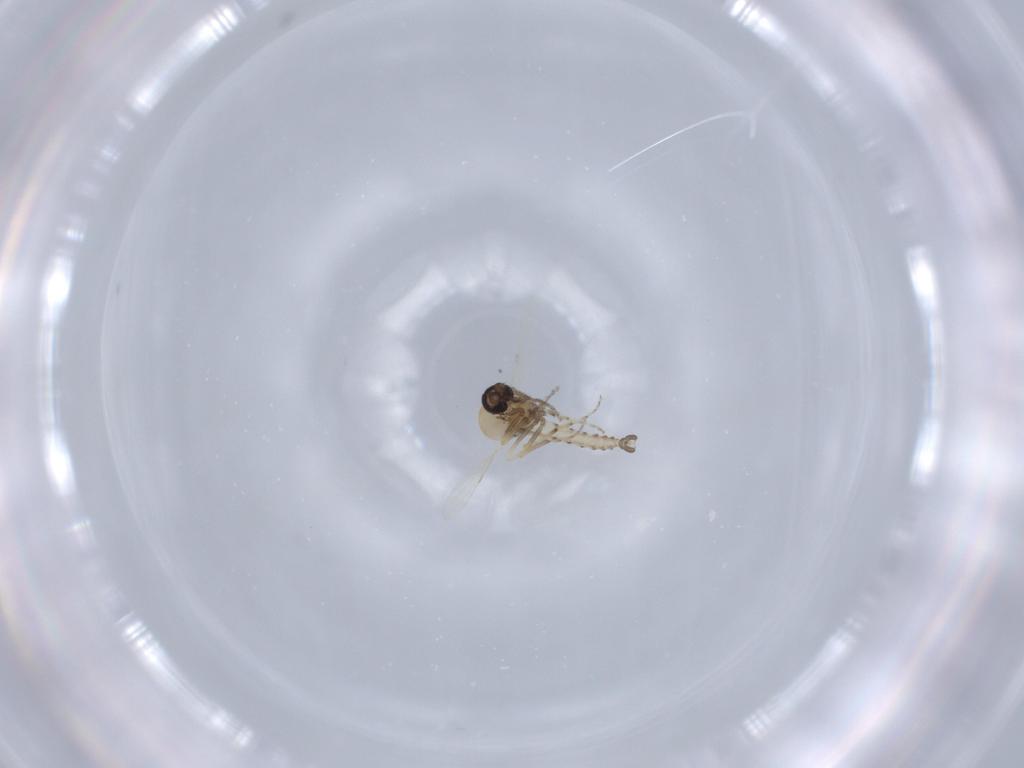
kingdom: Animalia
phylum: Arthropoda
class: Insecta
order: Diptera
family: Ceratopogonidae
